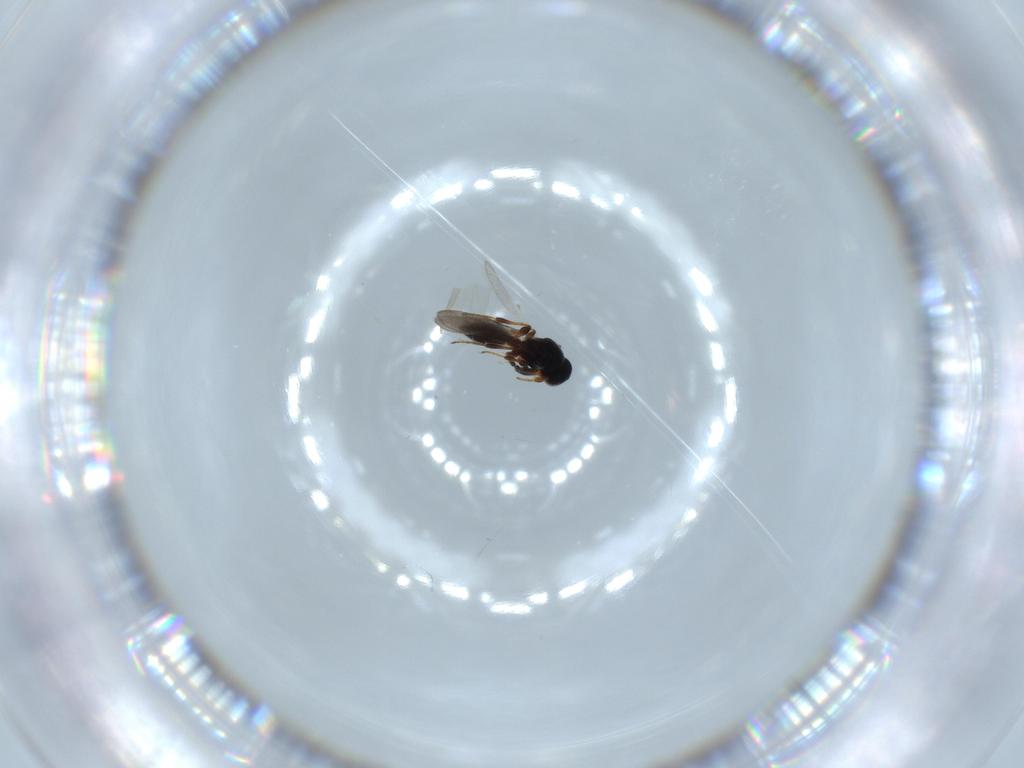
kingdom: Animalia
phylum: Arthropoda
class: Insecta
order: Hymenoptera
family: Platygastridae
